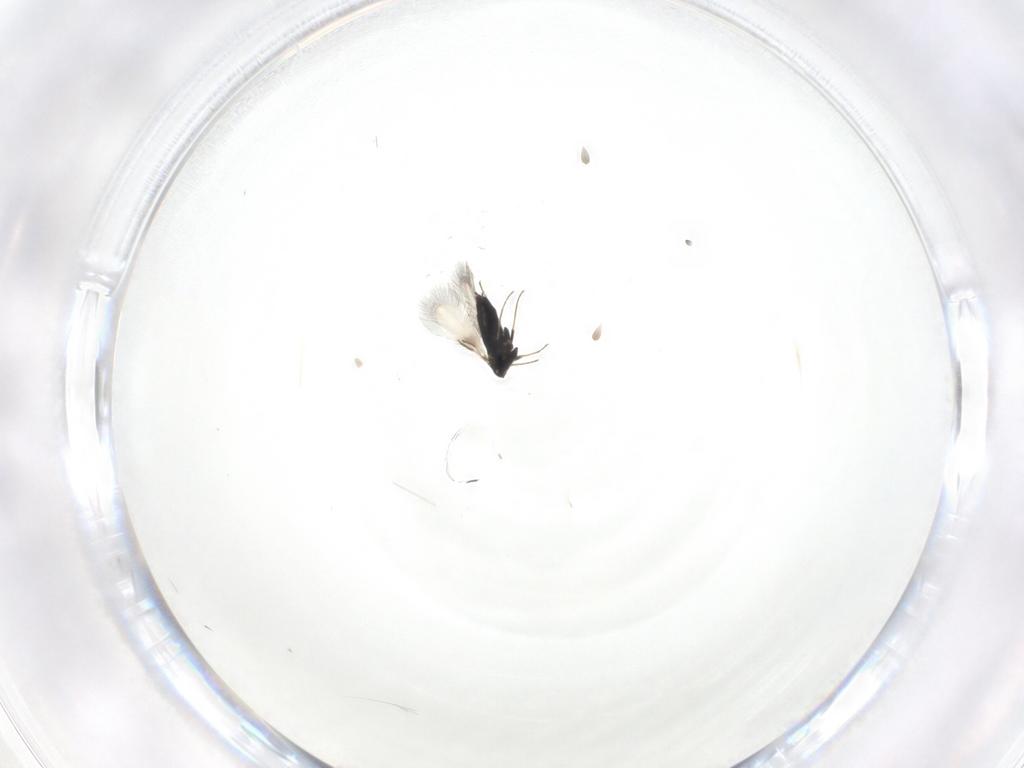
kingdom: Animalia
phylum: Arthropoda
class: Insecta
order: Hymenoptera
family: Signiphoridae
